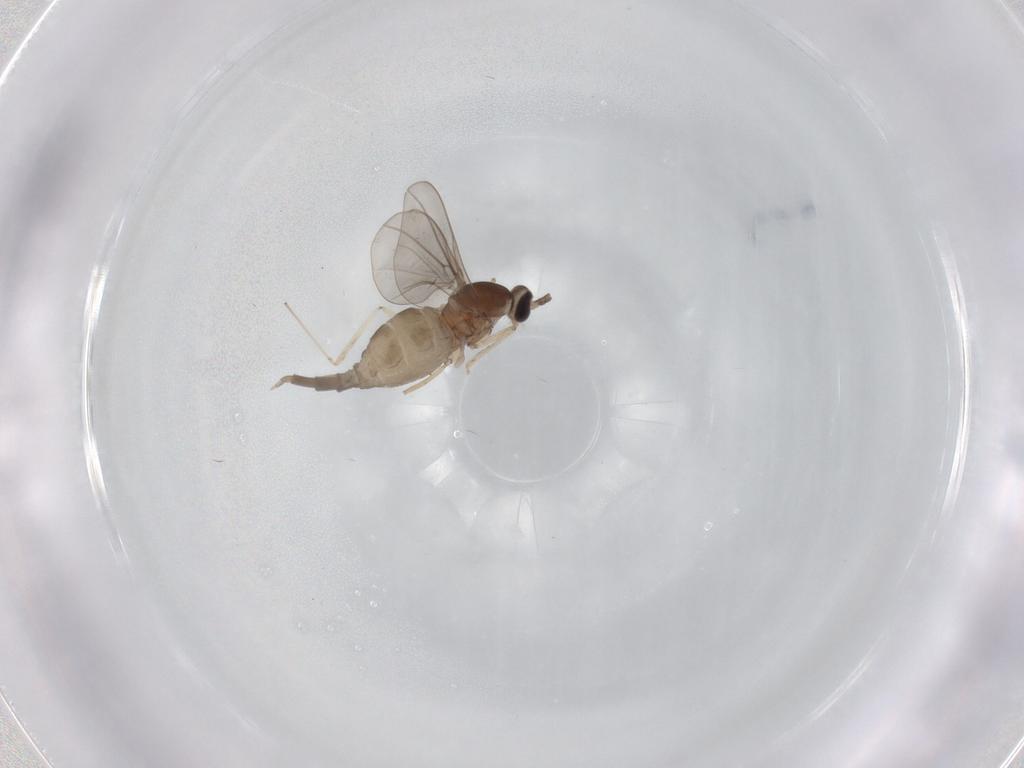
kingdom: Animalia
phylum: Arthropoda
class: Insecta
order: Diptera
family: Cecidomyiidae
